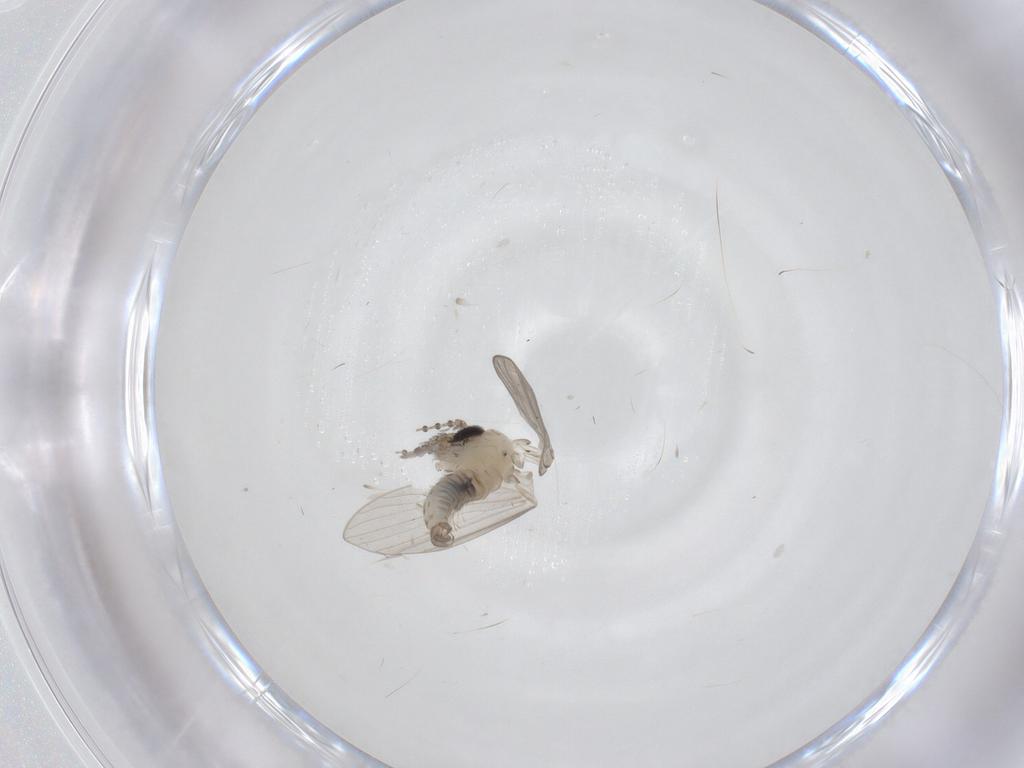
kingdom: Animalia
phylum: Arthropoda
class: Insecta
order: Diptera
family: Psychodidae
